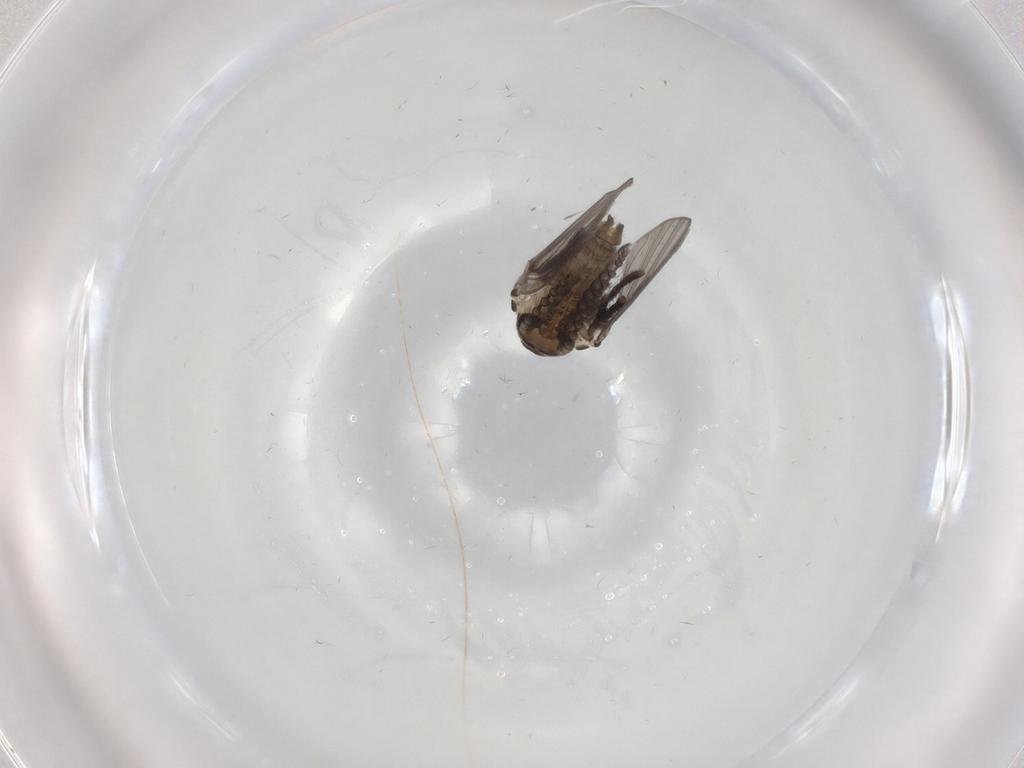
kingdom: Animalia
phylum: Arthropoda
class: Insecta
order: Diptera
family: Psychodidae
